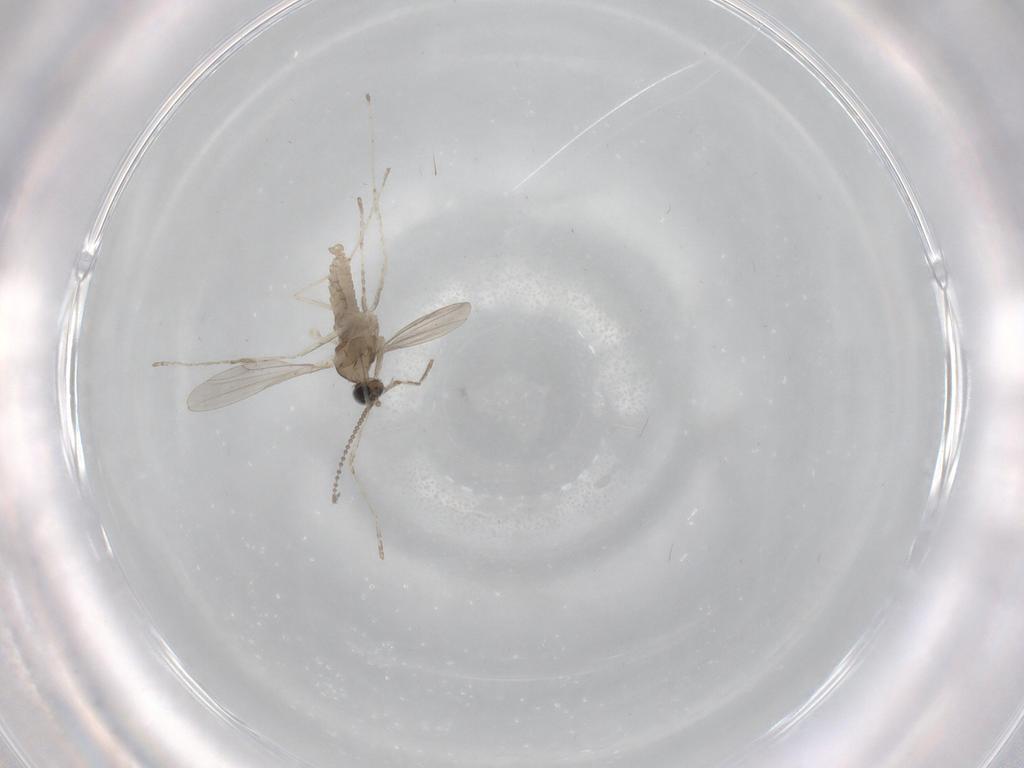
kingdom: Animalia
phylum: Arthropoda
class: Insecta
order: Diptera
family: Cecidomyiidae
